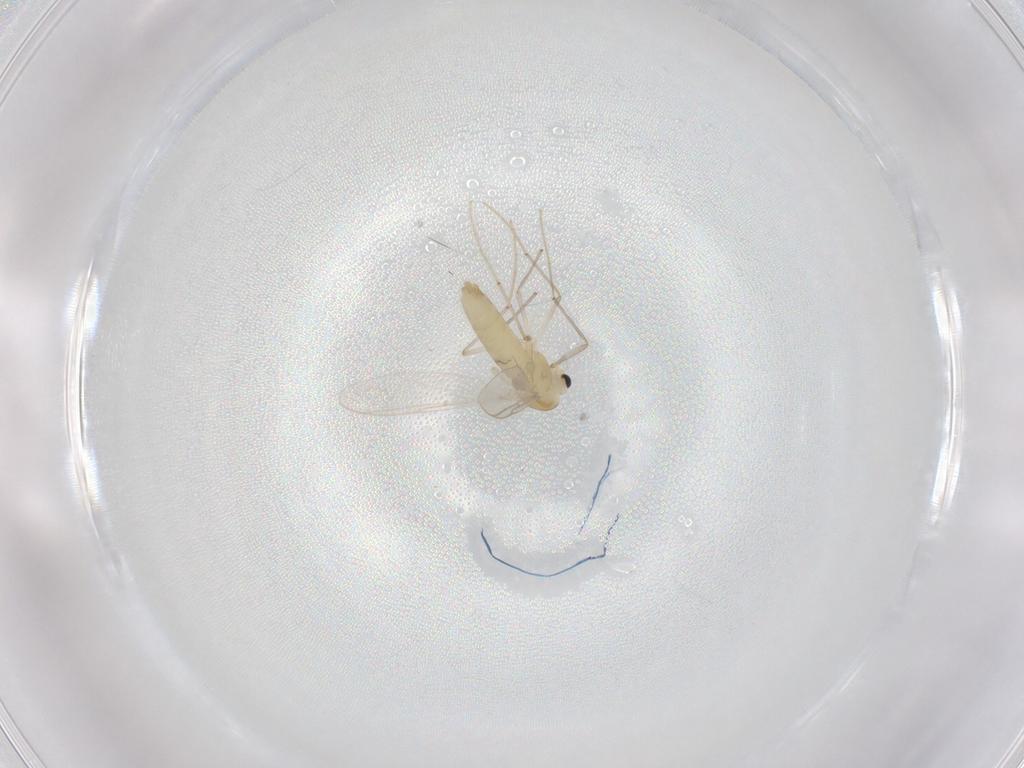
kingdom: Animalia
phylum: Arthropoda
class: Insecta
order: Diptera
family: Chironomidae
